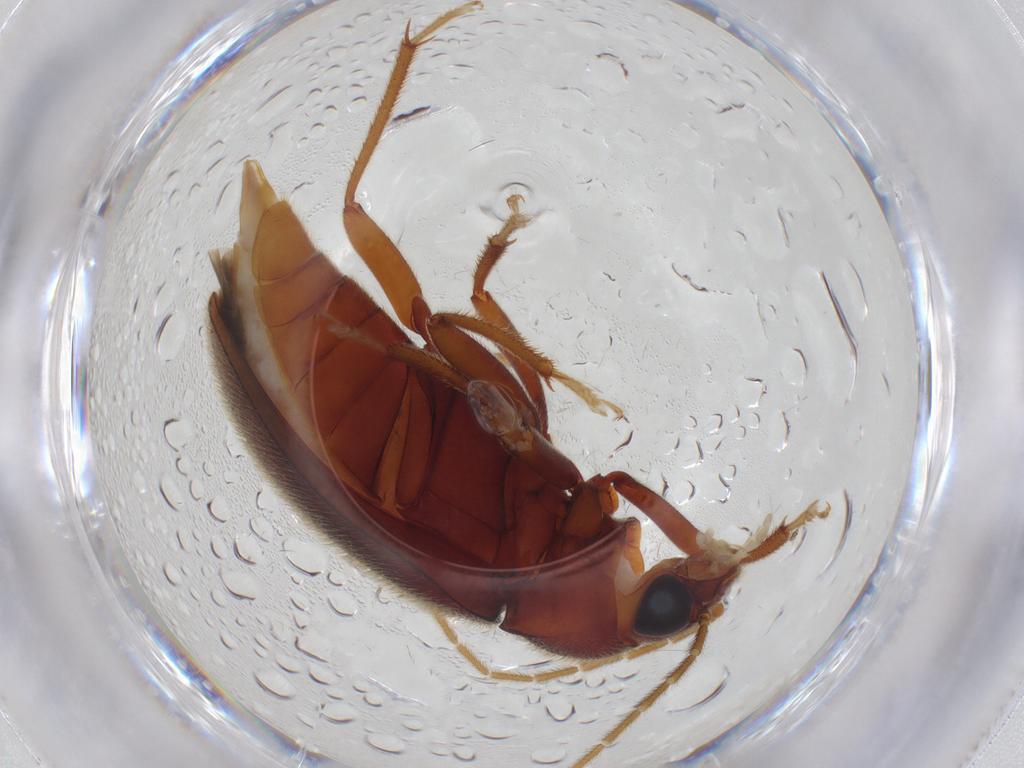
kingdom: Animalia
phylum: Arthropoda
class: Insecta
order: Coleoptera
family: Ptilodactylidae
